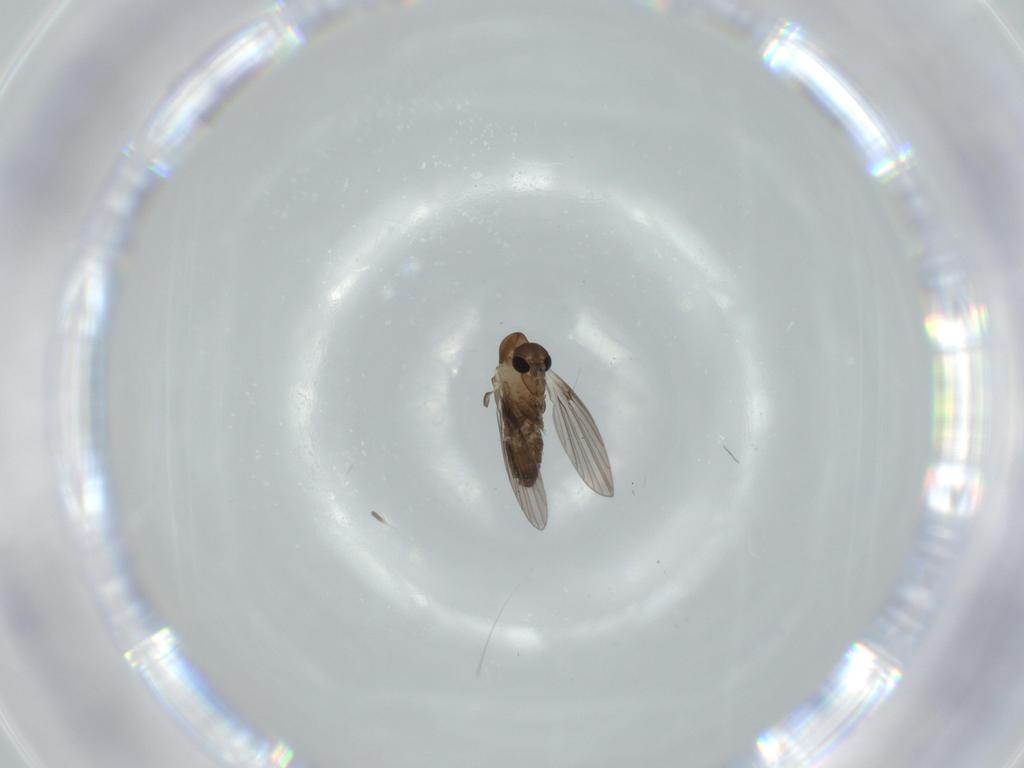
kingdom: Animalia
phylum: Arthropoda
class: Insecta
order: Diptera
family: Psychodidae
